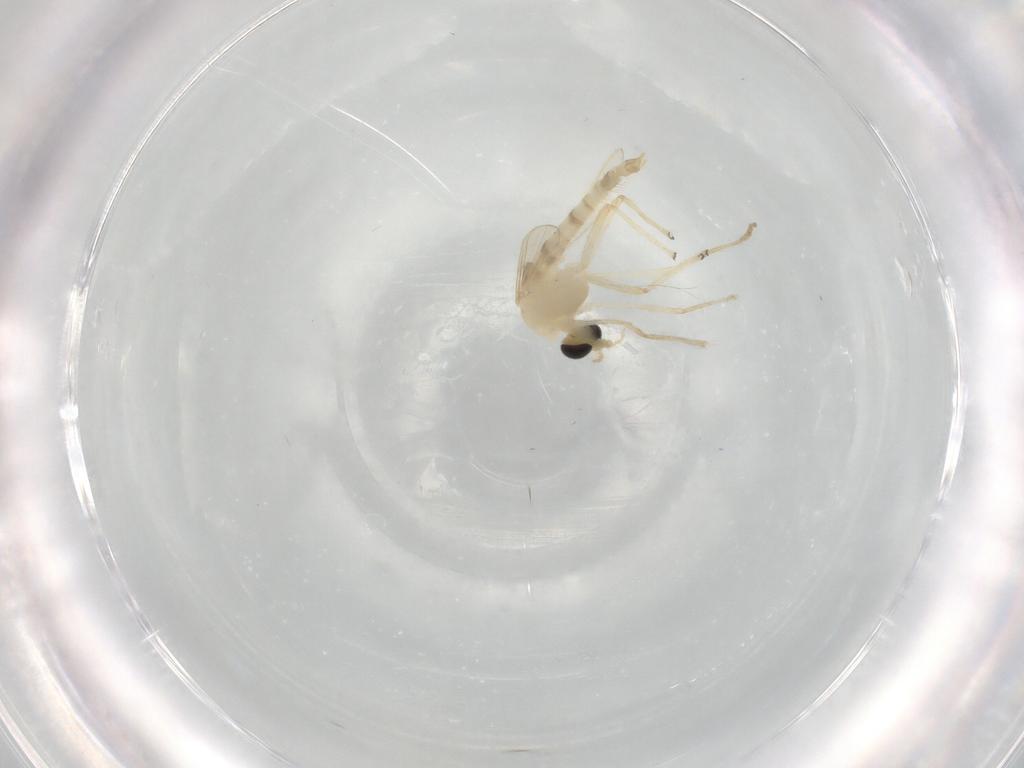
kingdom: Animalia
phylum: Arthropoda
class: Insecta
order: Diptera
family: Chironomidae
